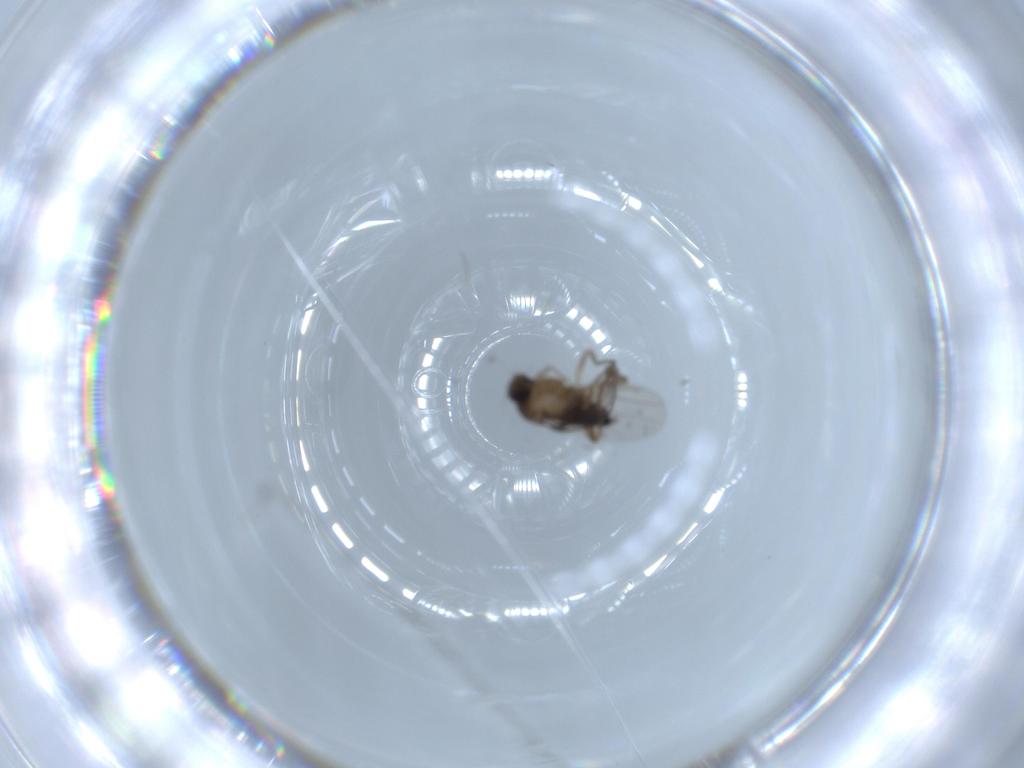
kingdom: Animalia
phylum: Arthropoda
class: Insecta
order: Diptera
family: Phoridae
